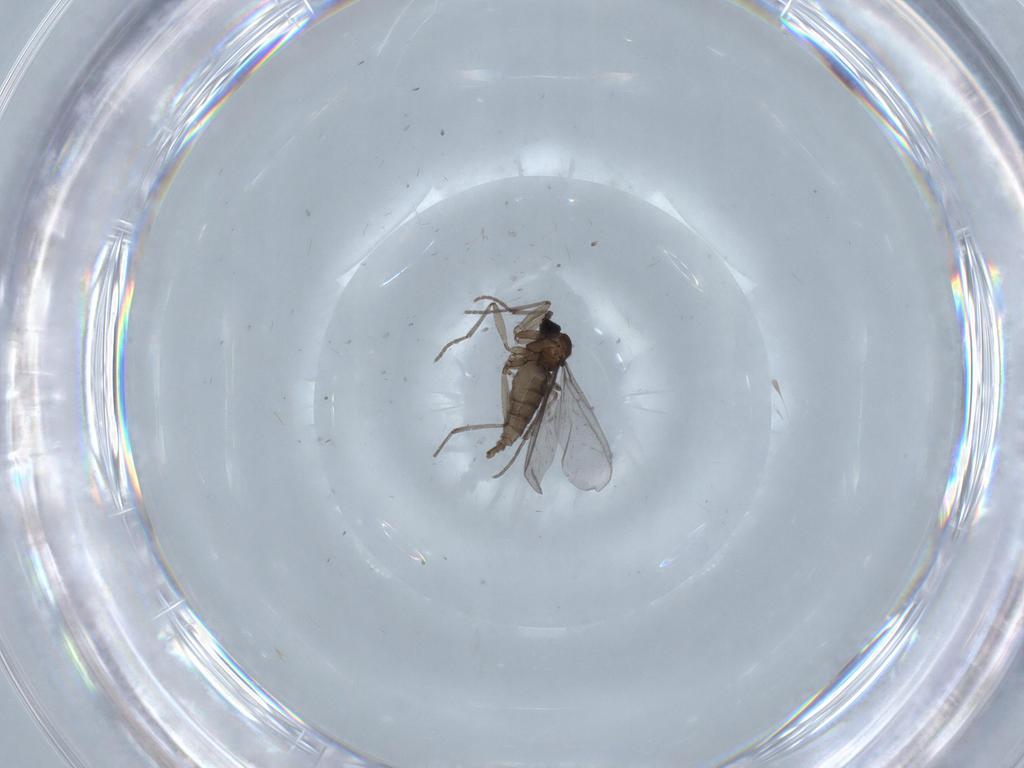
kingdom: Animalia
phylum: Arthropoda
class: Insecta
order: Diptera
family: Sciaridae
